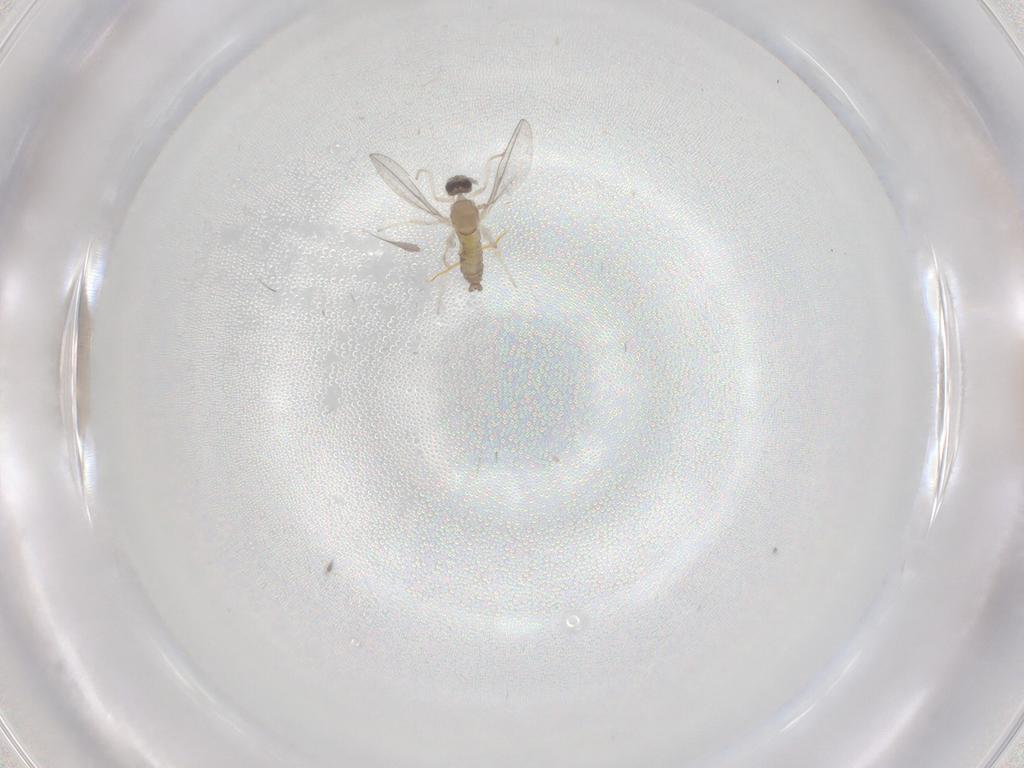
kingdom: Animalia
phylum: Arthropoda
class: Insecta
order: Diptera
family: Cecidomyiidae
